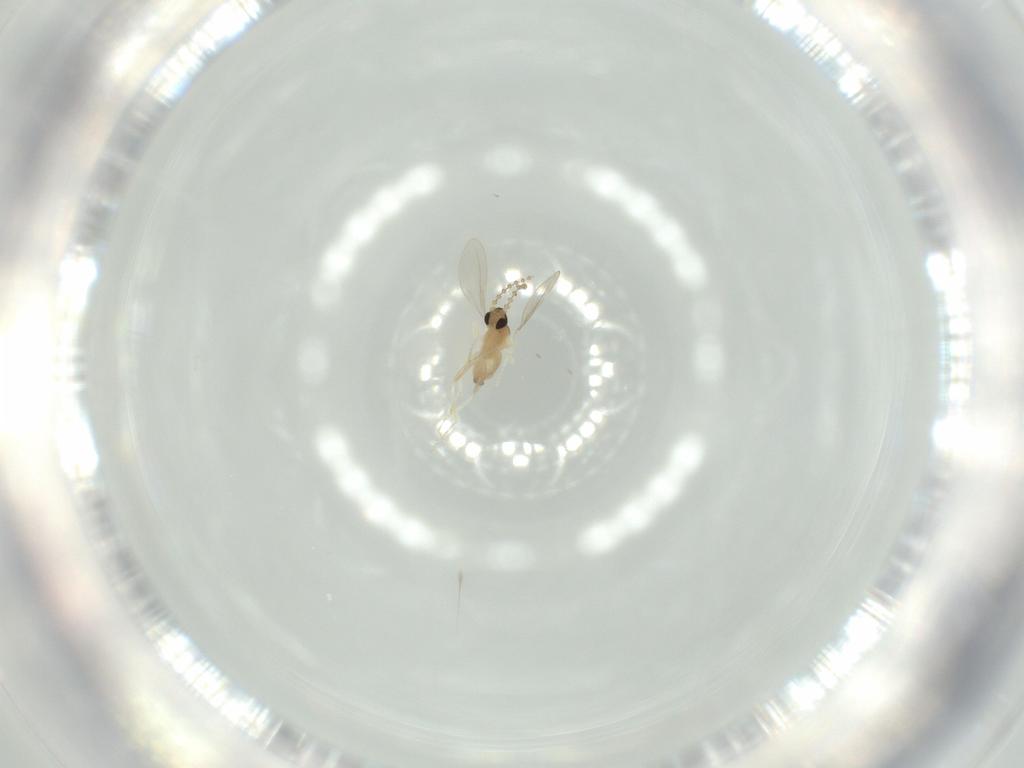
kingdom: Animalia
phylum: Arthropoda
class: Insecta
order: Diptera
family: Cecidomyiidae
